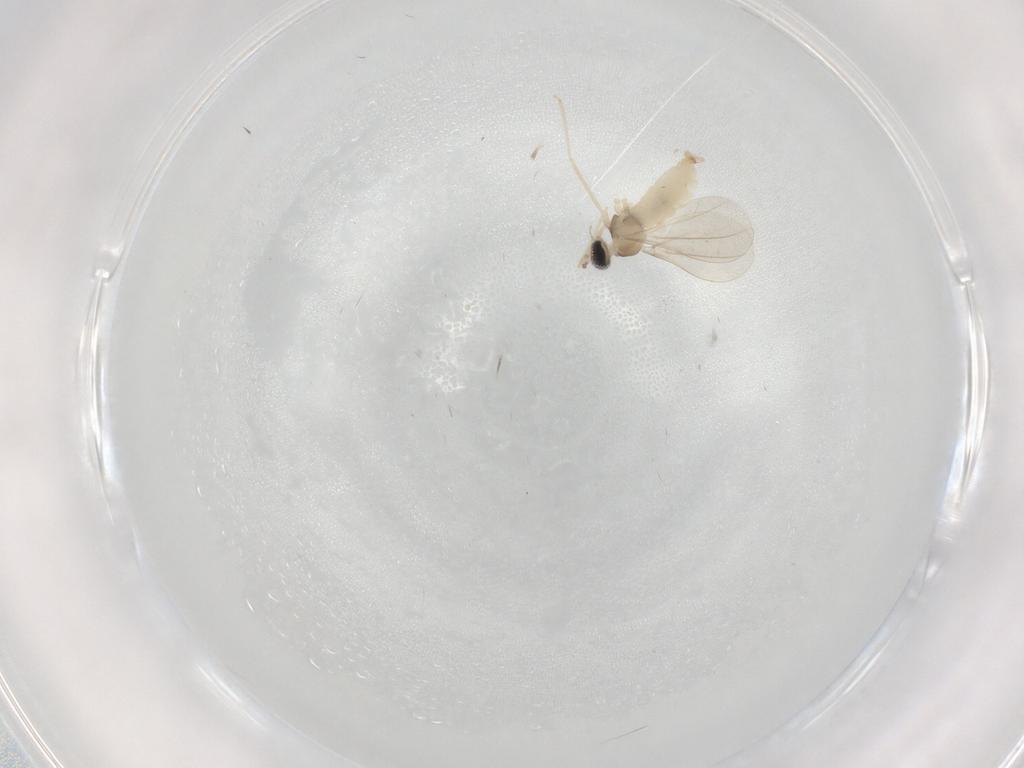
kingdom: Animalia
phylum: Arthropoda
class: Insecta
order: Diptera
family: Cecidomyiidae
